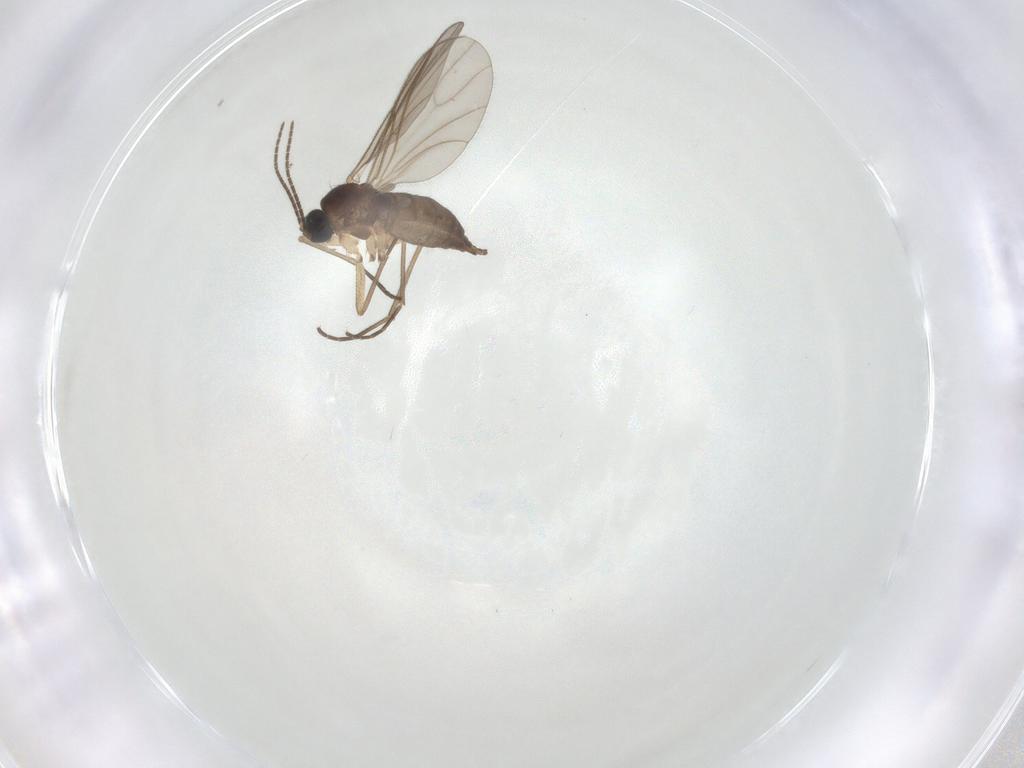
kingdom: Animalia
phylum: Arthropoda
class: Insecta
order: Diptera
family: Sciaridae
